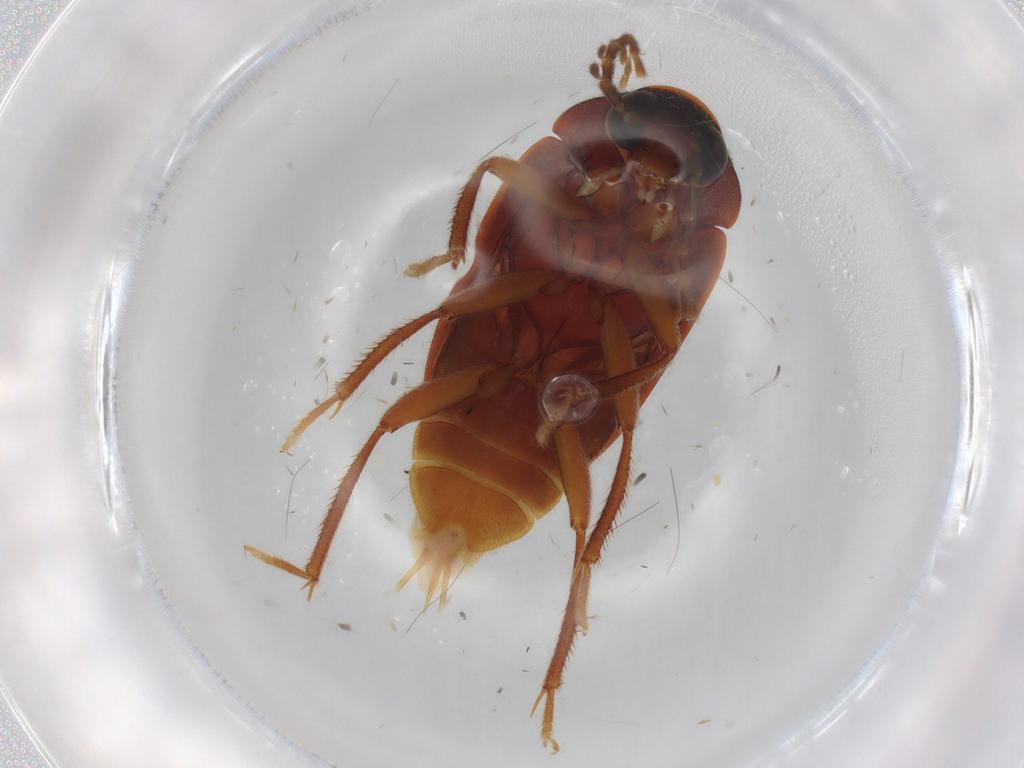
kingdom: Animalia
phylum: Arthropoda
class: Insecta
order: Coleoptera
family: Ptilodactylidae
